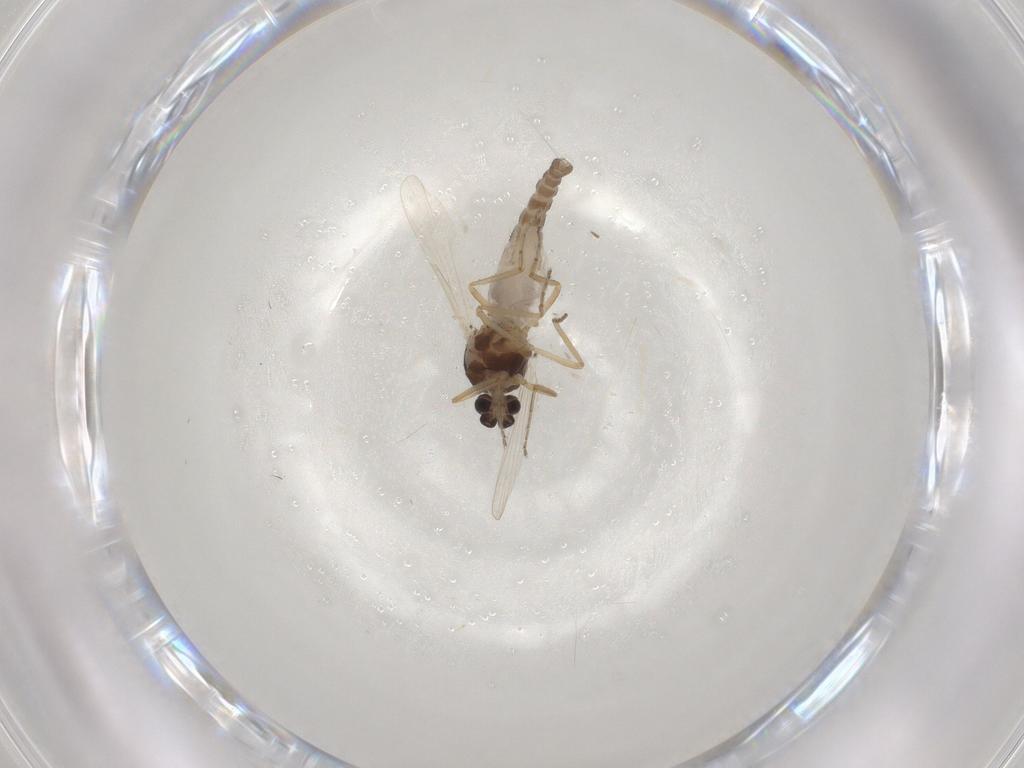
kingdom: Animalia
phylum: Arthropoda
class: Insecta
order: Diptera
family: Ceratopogonidae
